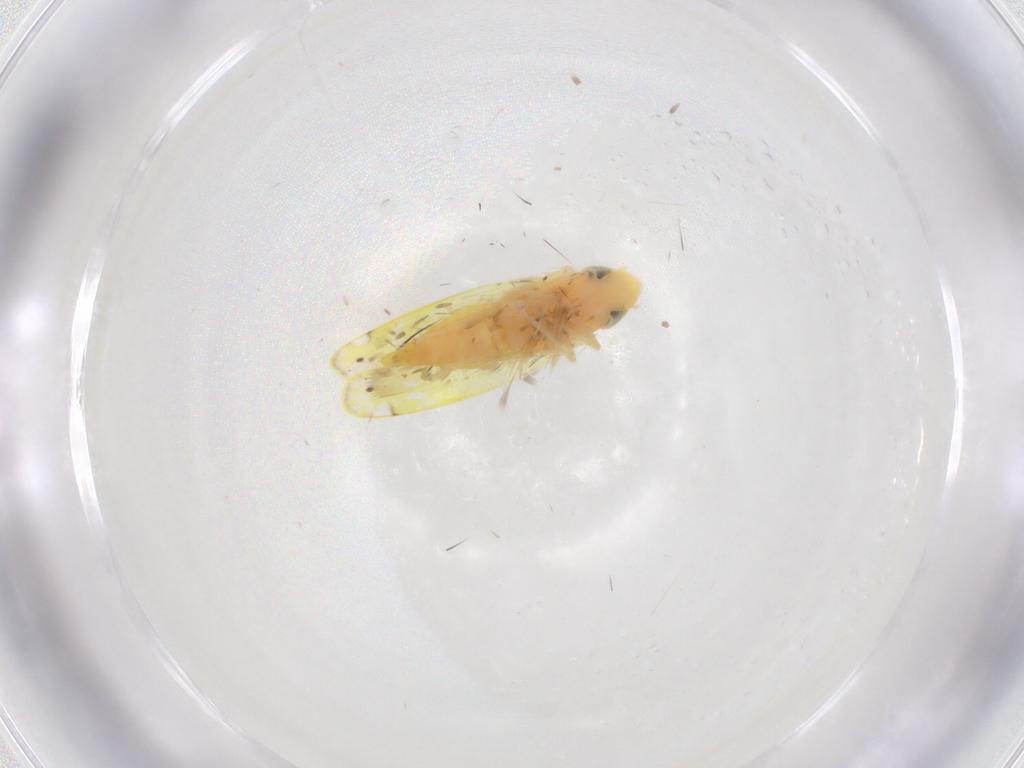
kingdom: Animalia
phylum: Arthropoda
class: Insecta
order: Hemiptera
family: Cicadellidae
